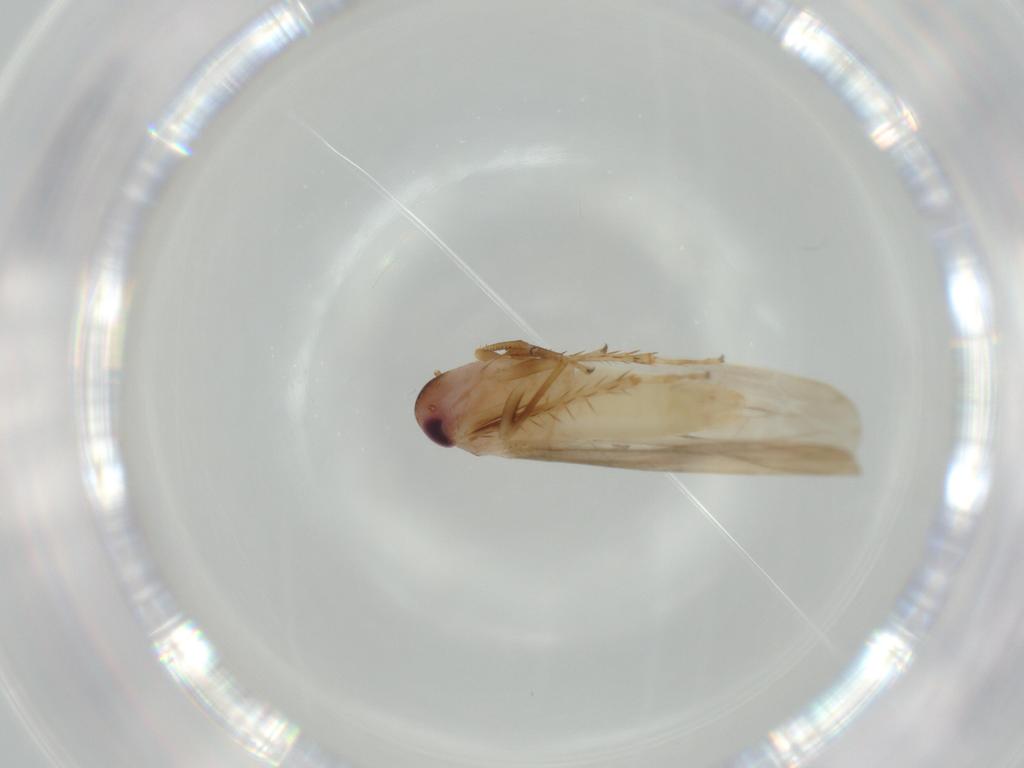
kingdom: Animalia
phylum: Arthropoda
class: Insecta
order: Hemiptera
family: Cicadellidae
